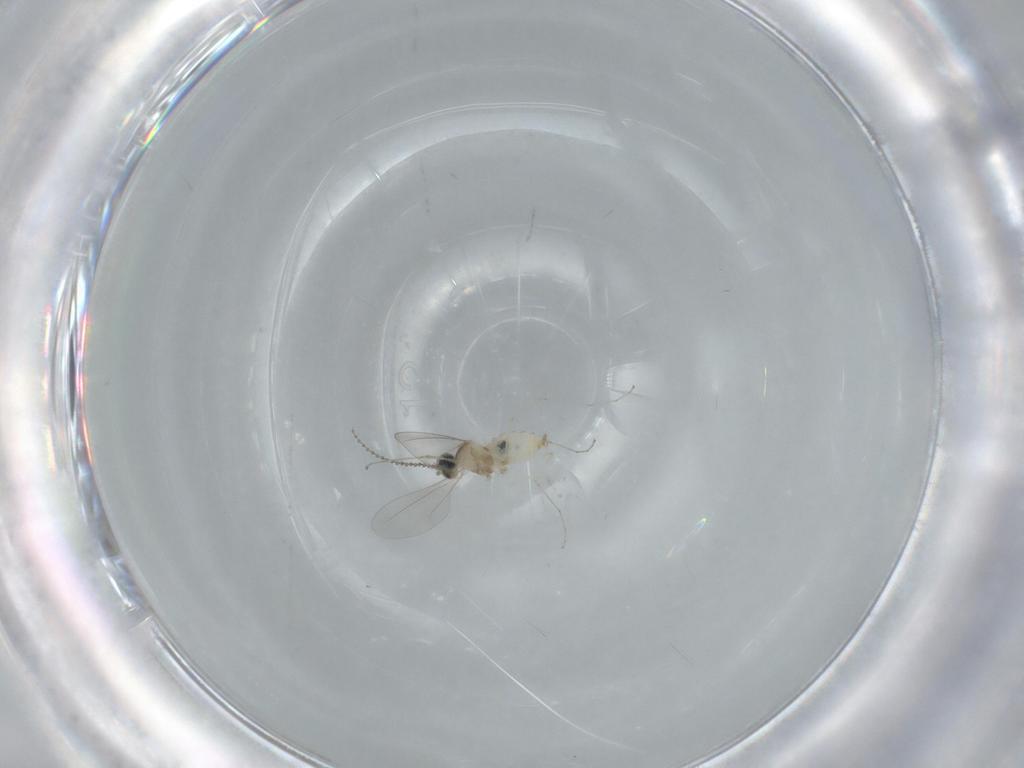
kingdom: Animalia
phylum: Arthropoda
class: Insecta
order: Diptera
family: Cecidomyiidae
